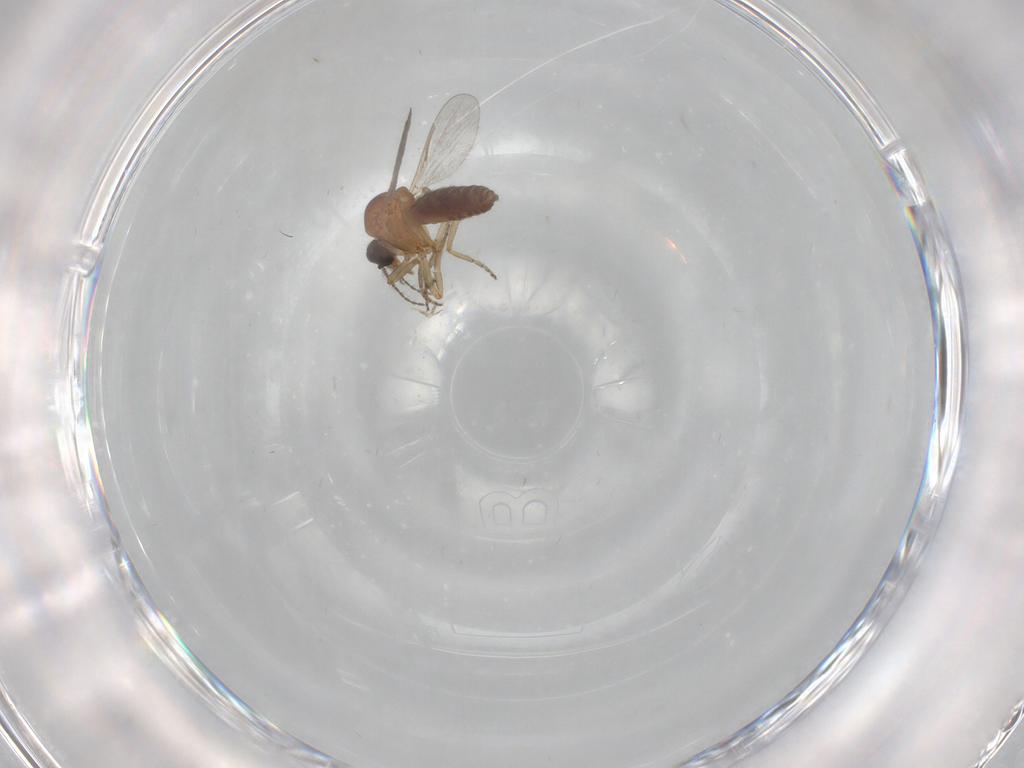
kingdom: Animalia
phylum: Arthropoda
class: Insecta
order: Diptera
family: Ceratopogonidae
